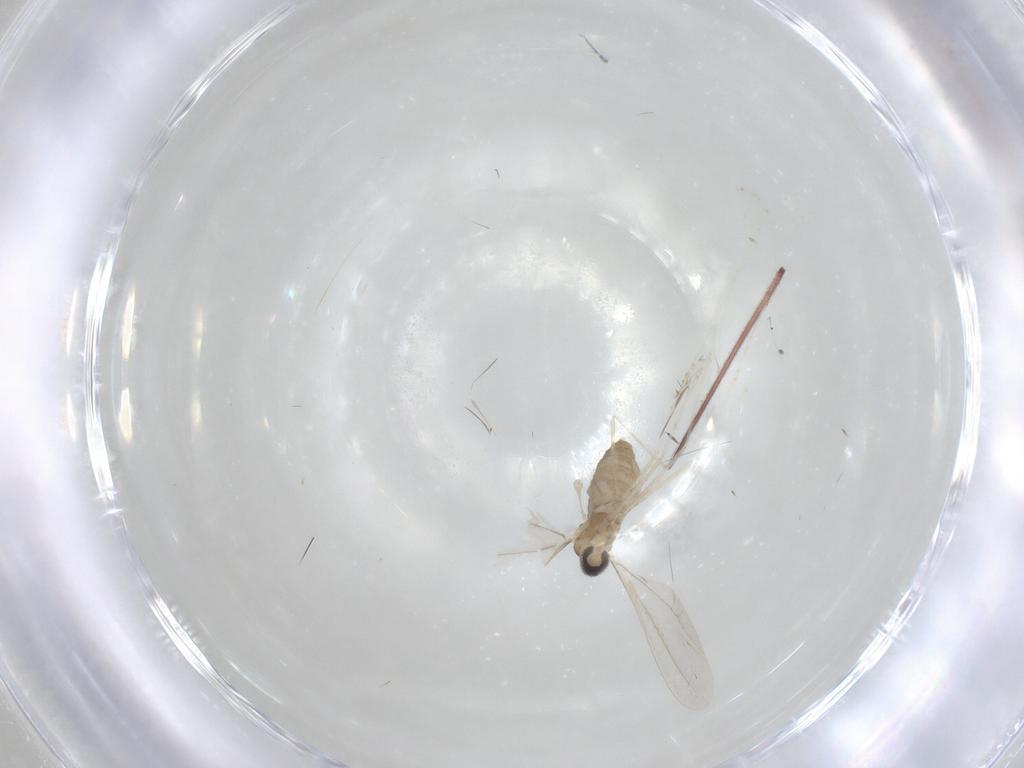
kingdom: Animalia
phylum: Arthropoda
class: Insecta
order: Diptera
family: Cecidomyiidae
